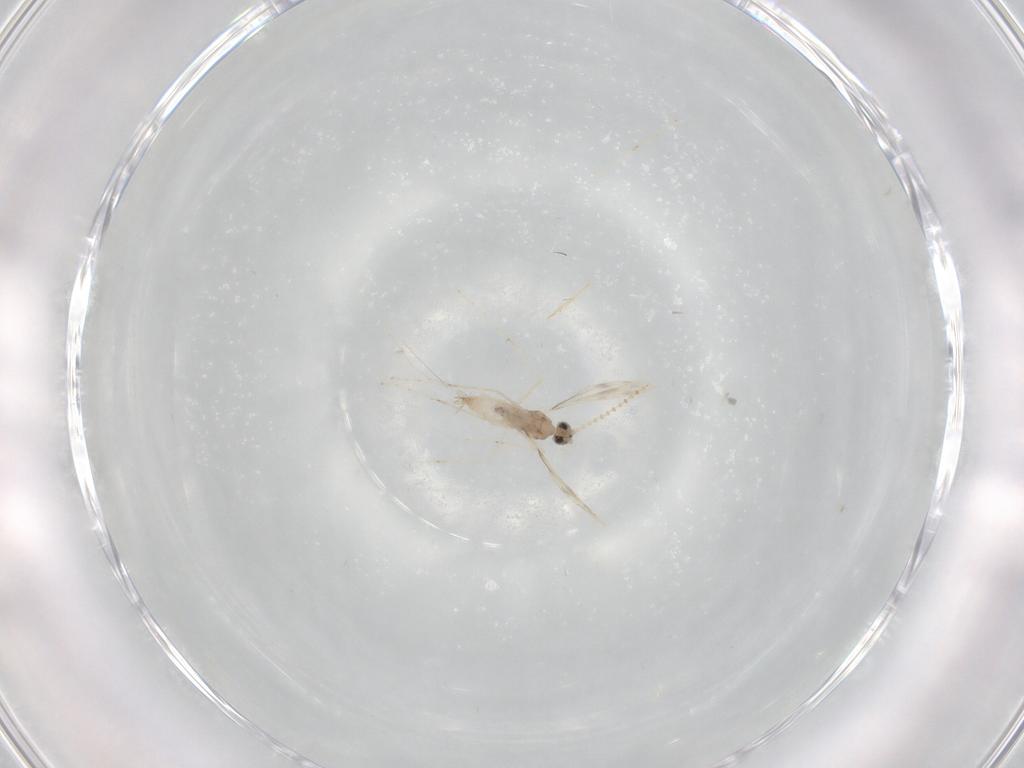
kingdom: Animalia
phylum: Arthropoda
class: Insecta
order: Diptera
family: Cecidomyiidae
